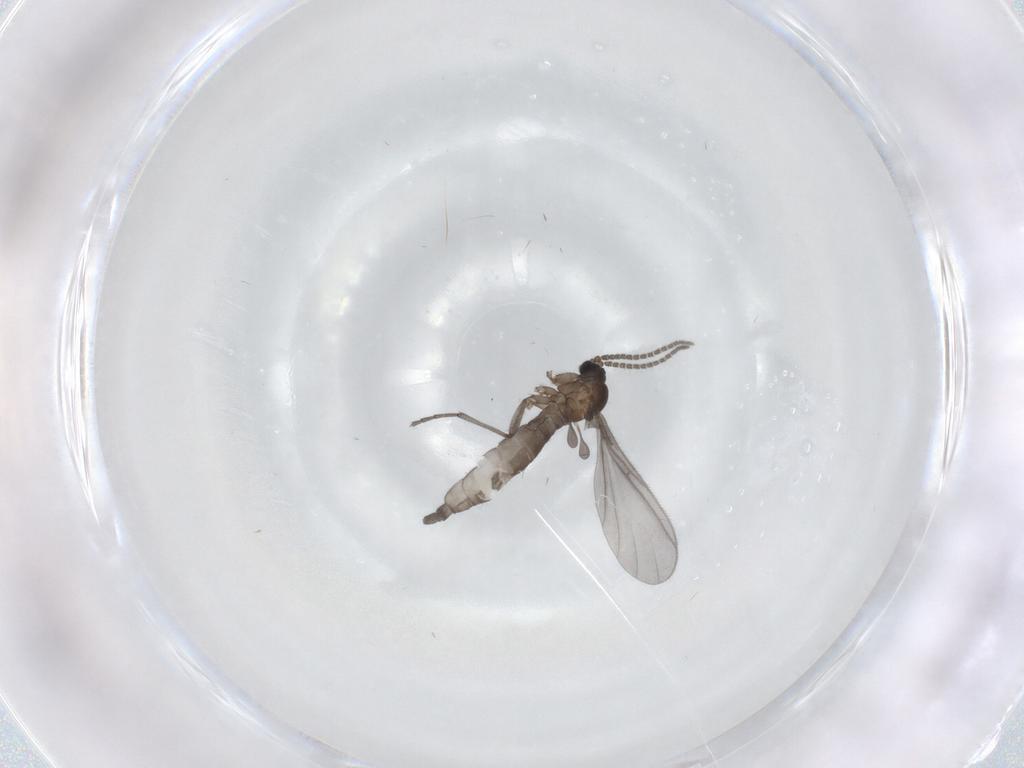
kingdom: Animalia
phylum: Arthropoda
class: Insecta
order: Diptera
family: Sciaridae
